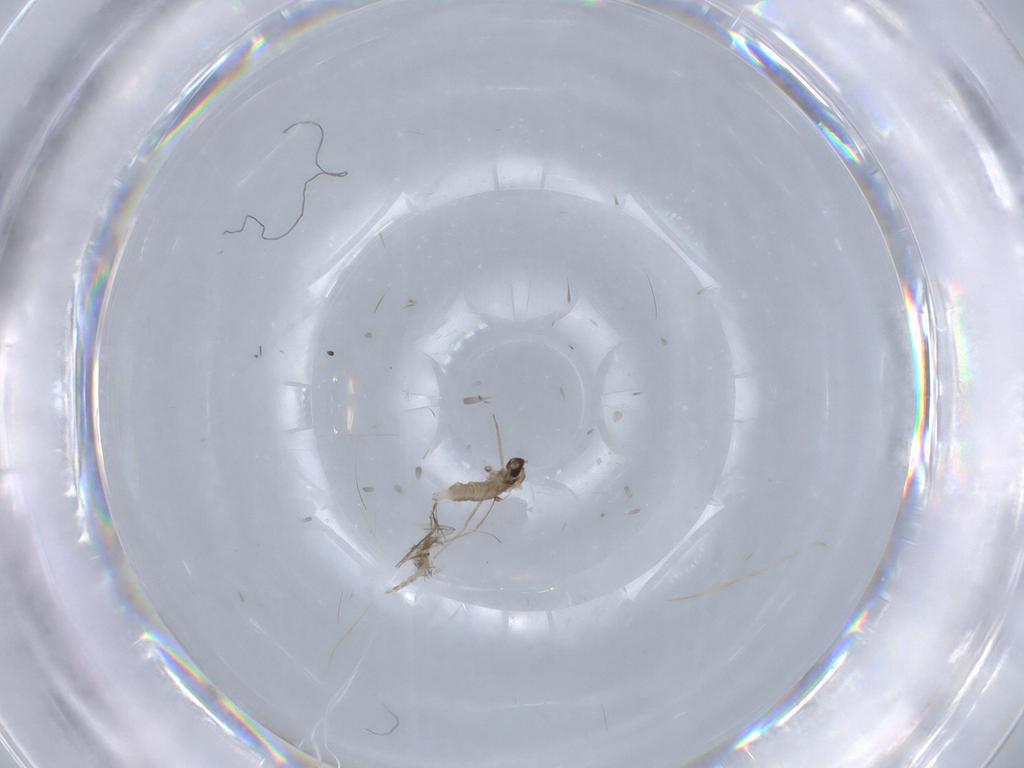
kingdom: Animalia
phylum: Arthropoda
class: Insecta
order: Diptera
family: Cecidomyiidae
